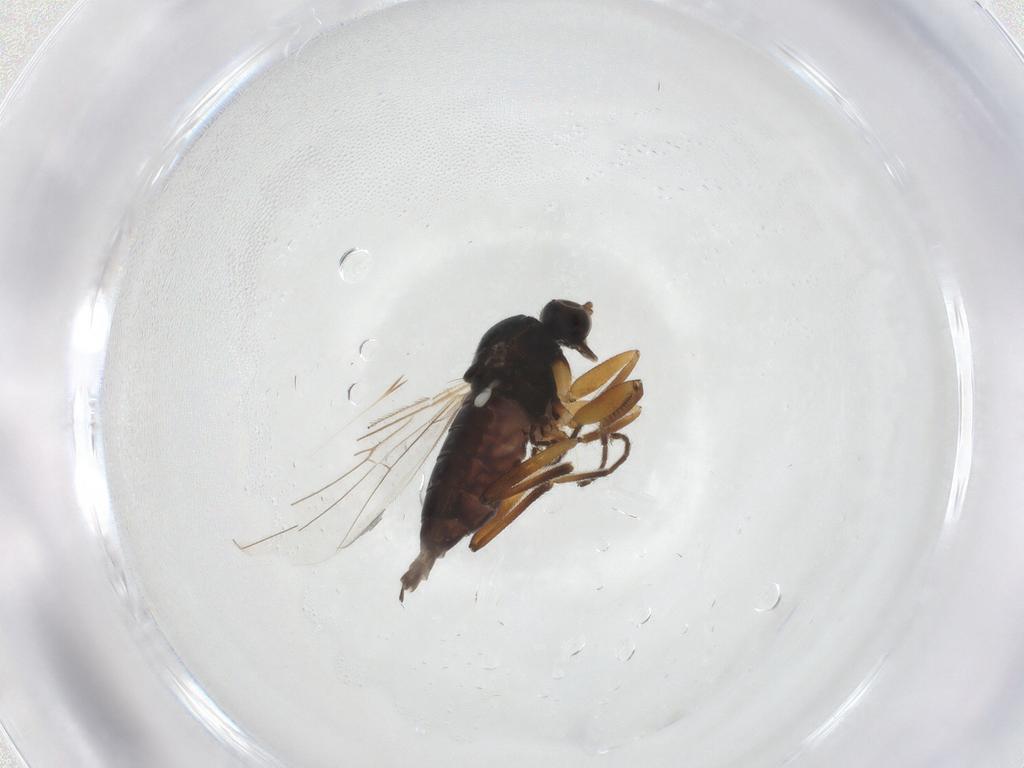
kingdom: Animalia
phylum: Arthropoda
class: Insecta
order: Diptera
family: Hybotidae
